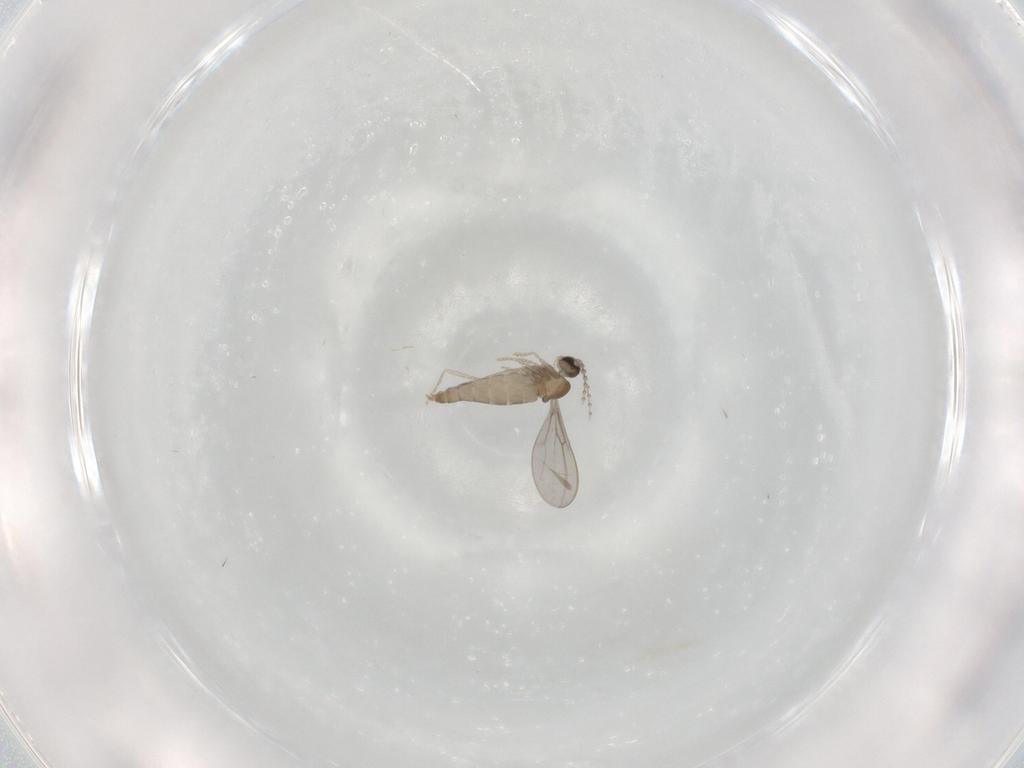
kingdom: Animalia
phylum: Arthropoda
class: Insecta
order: Diptera
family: Cecidomyiidae
